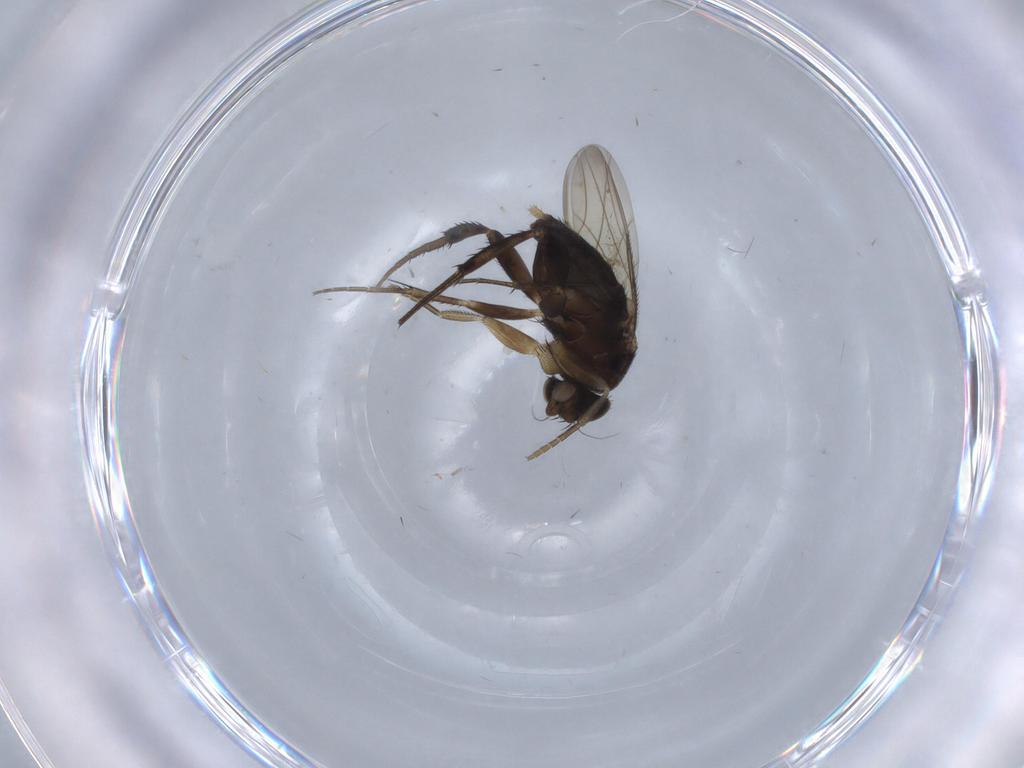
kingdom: Animalia
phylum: Arthropoda
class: Insecta
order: Diptera
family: Phoridae
